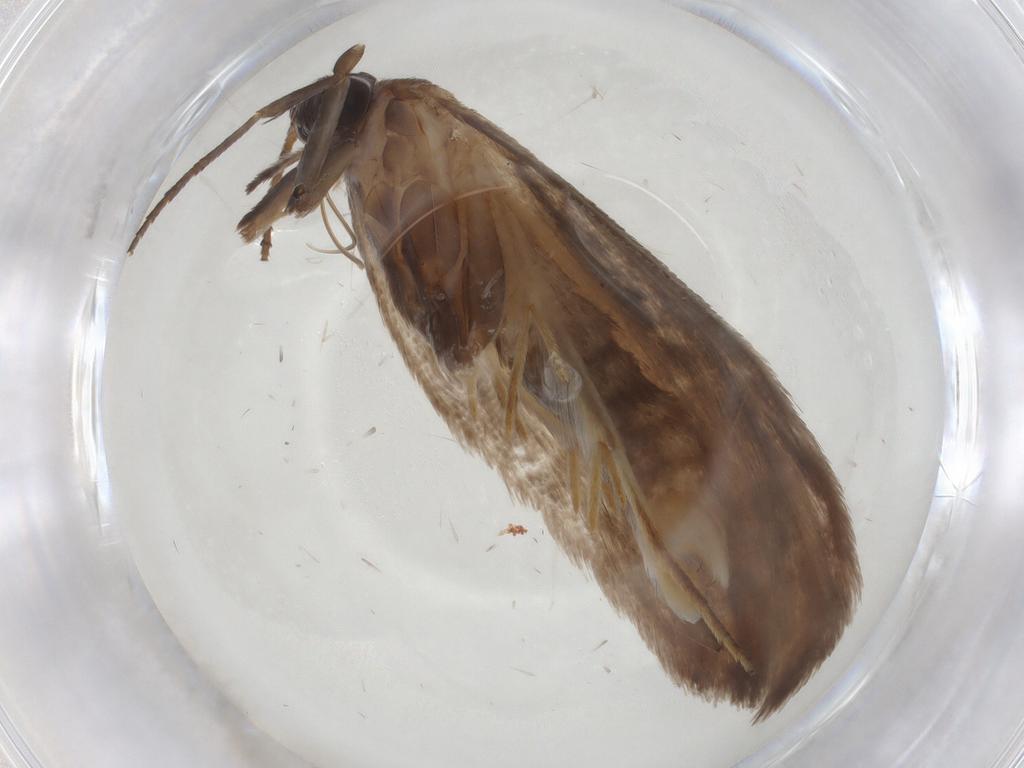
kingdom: Animalia
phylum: Arthropoda
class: Insecta
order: Lepidoptera
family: Roeslerstammiidae
